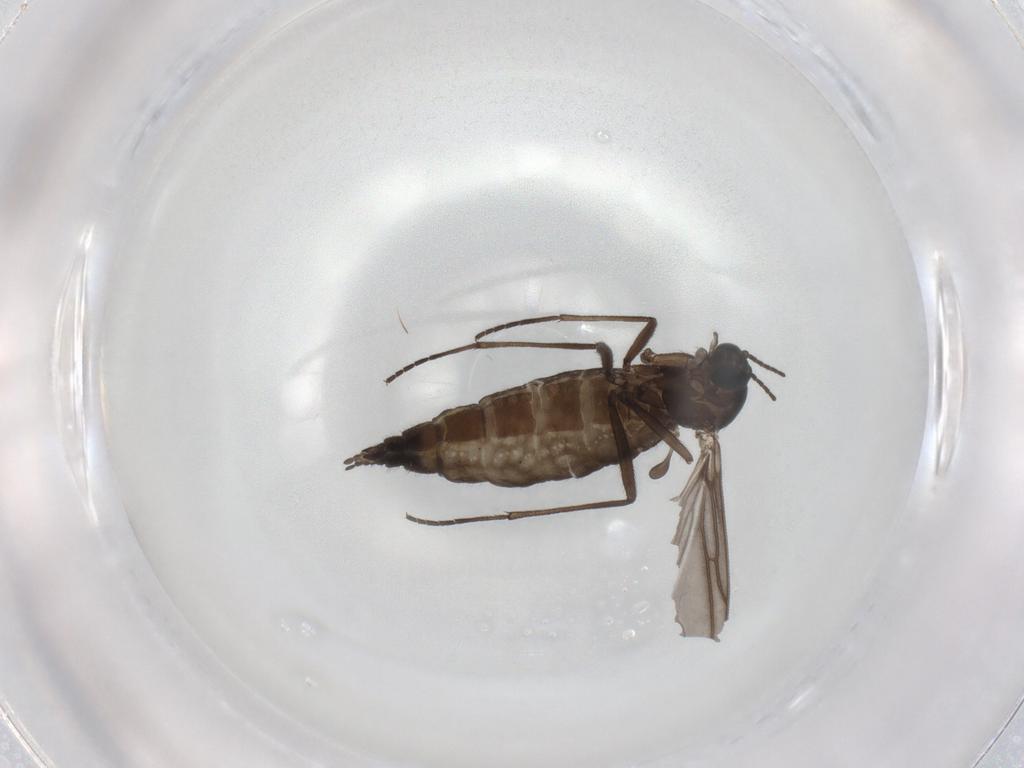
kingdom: Animalia
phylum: Arthropoda
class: Insecta
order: Diptera
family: Sciaridae
